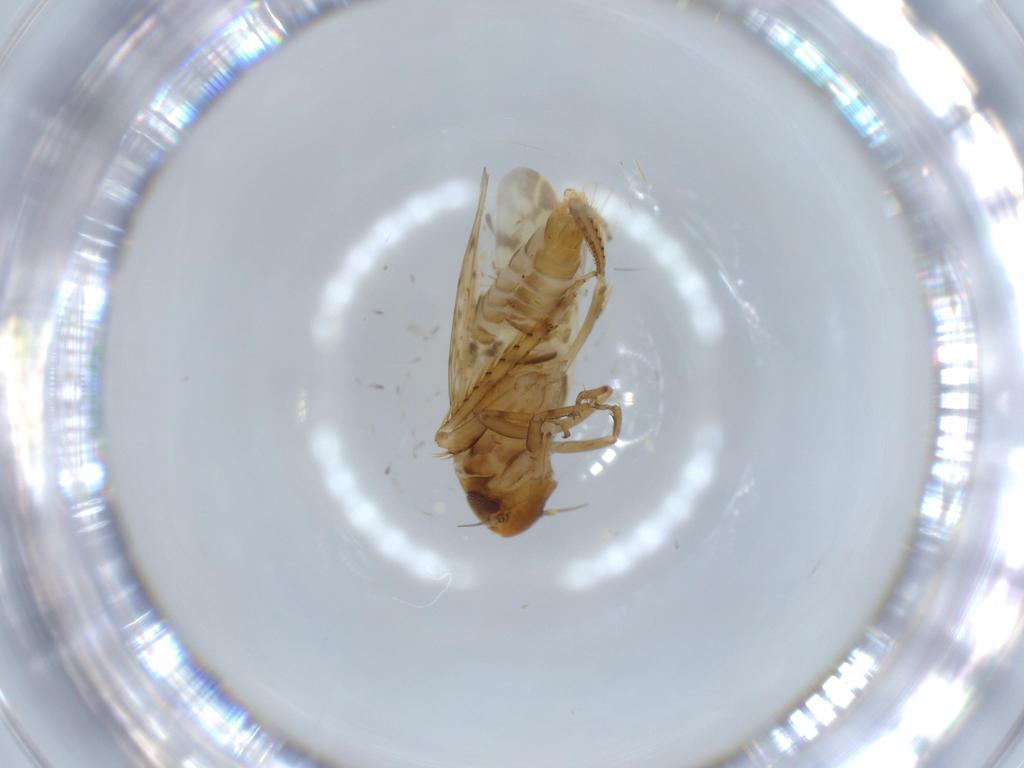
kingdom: Animalia
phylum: Arthropoda
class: Insecta
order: Hemiptera
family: Cicadellidae
